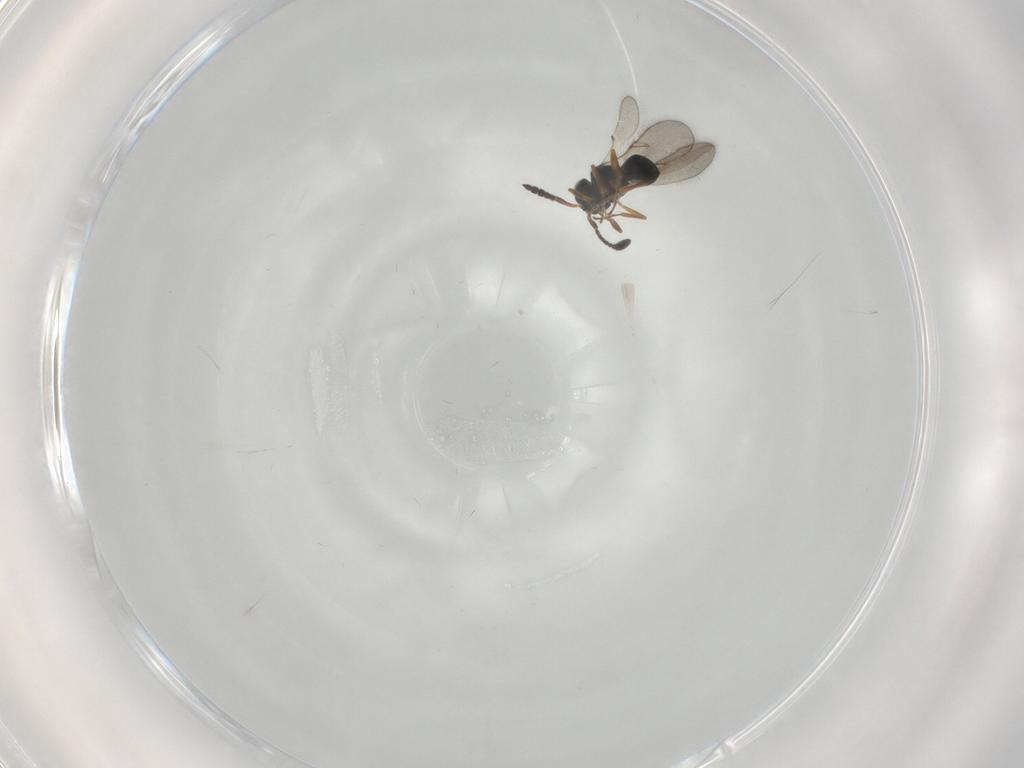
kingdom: Animalia
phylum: Arthropoda
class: Insecta
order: Hymenoptera
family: Scelionidae
